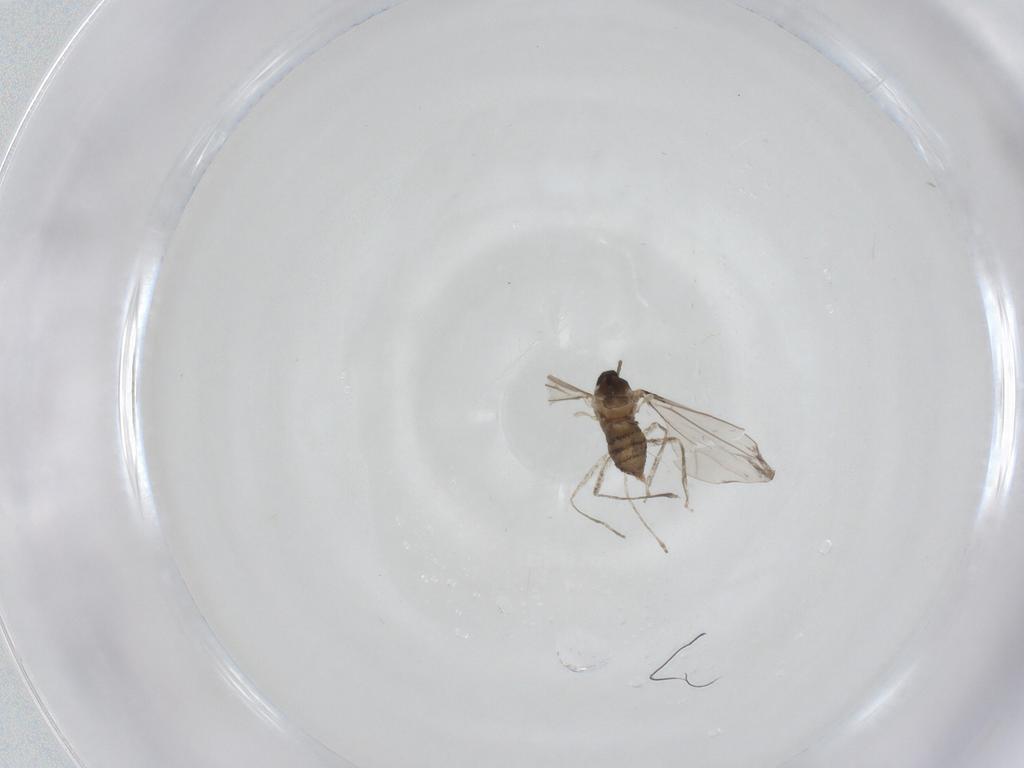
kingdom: Animalia
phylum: Arthropoda
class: Insecta
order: Diptera
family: Cecidomyiidae
